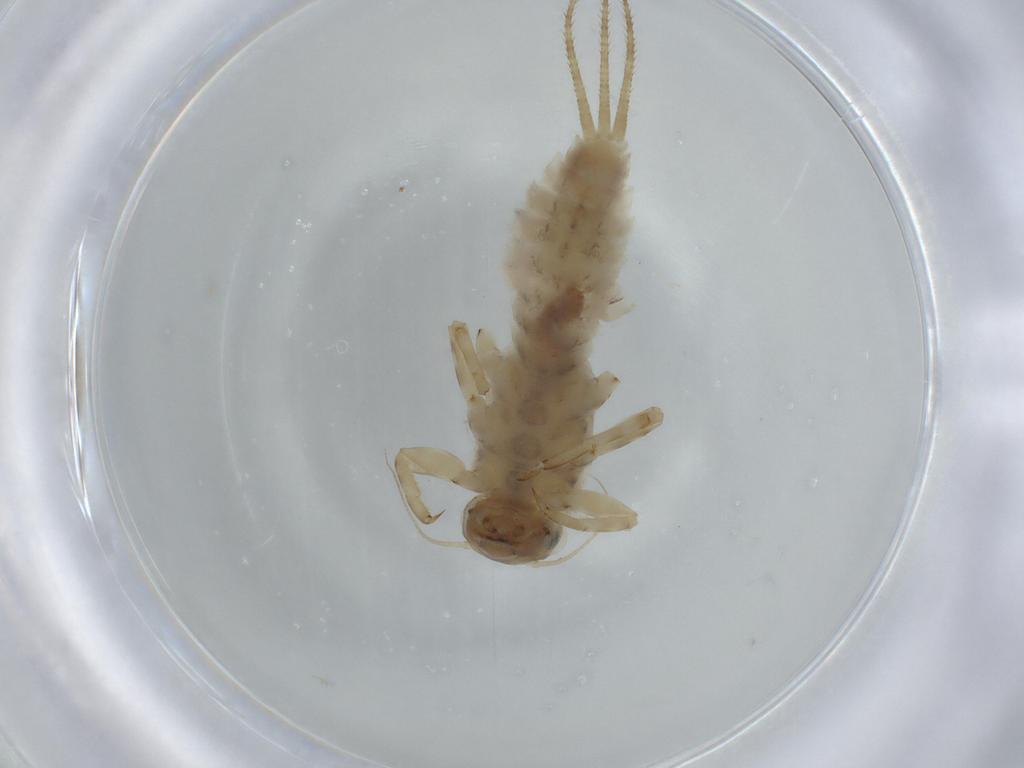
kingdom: Animalia
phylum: Arthropoda
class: Insecta
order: Ephemeroptera
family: Ephemerellidae
